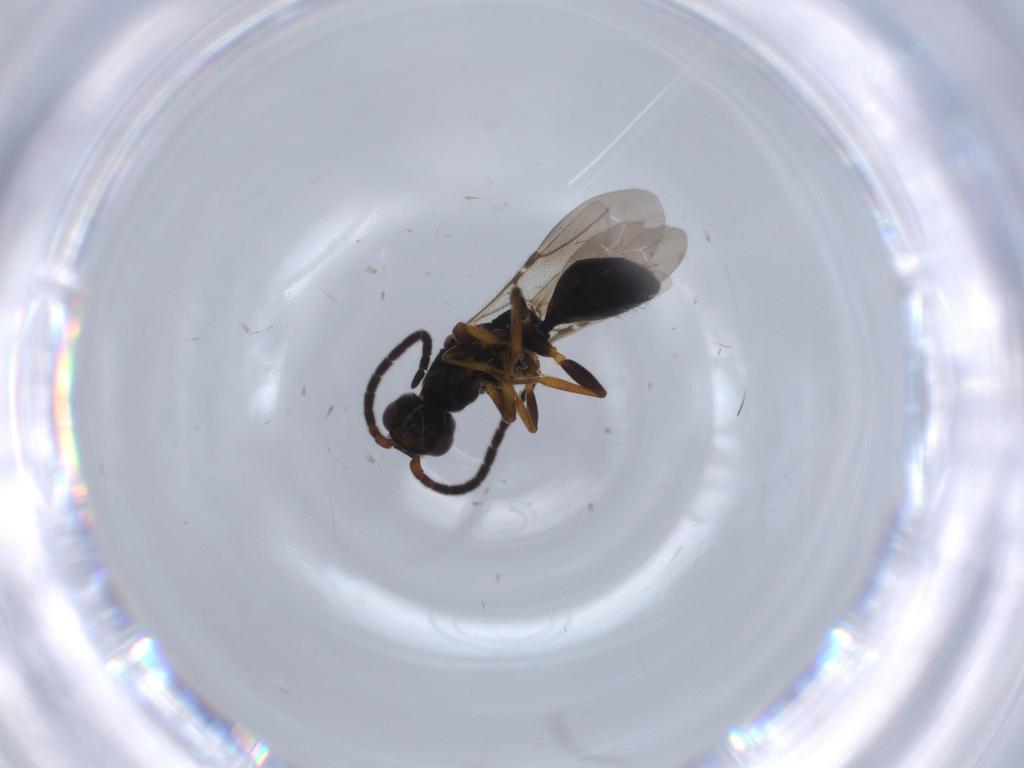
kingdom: Animalia
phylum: Arthropoda
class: Insecta
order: Hymenoptera
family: Bethylidae
